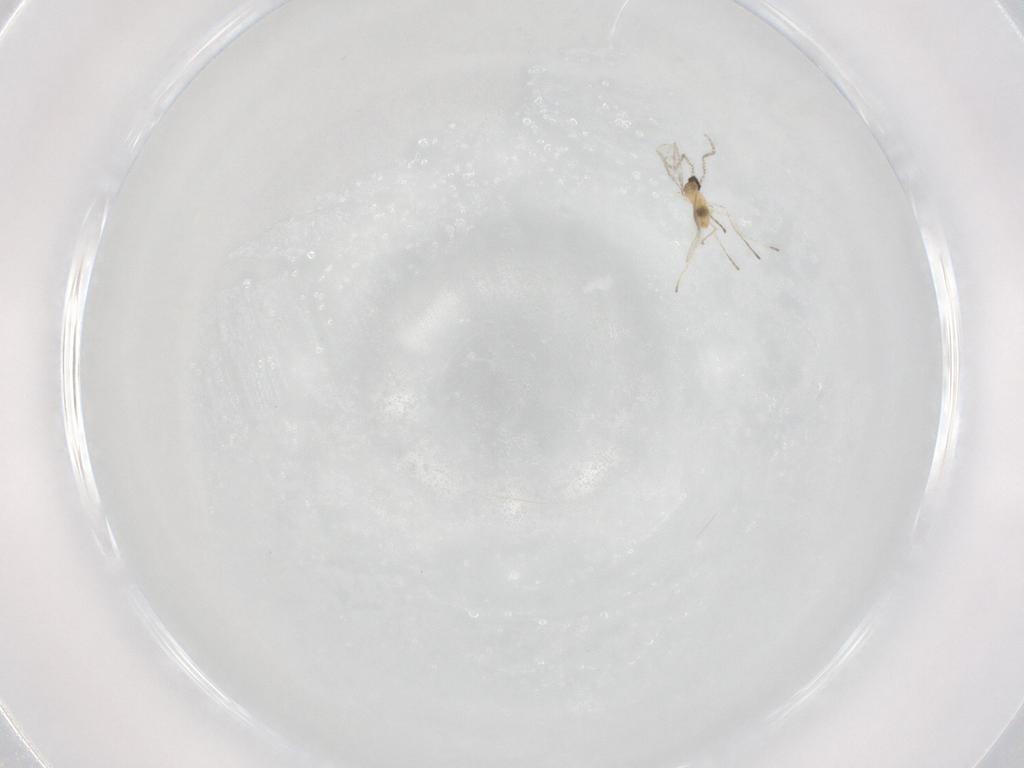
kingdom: Animalia
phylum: Arthropoda
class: Insecta
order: Diptera
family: Cecidomyiidae
